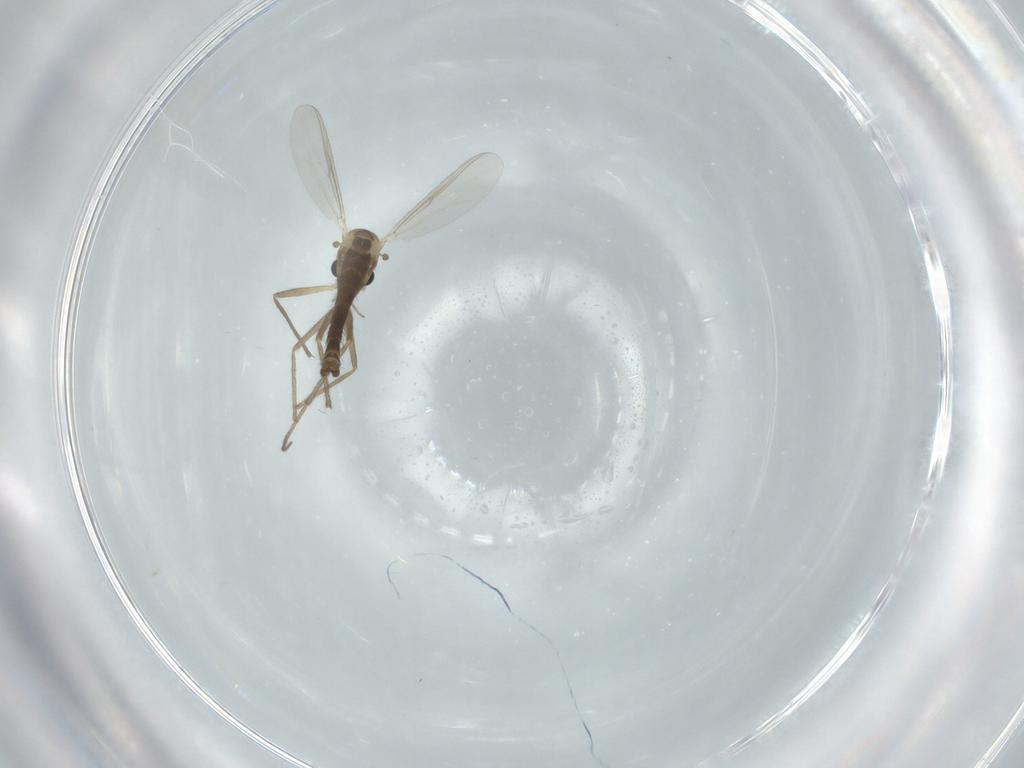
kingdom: Animalia
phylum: Arthropoda
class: Insecta
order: Diptera
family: Chironomidae
